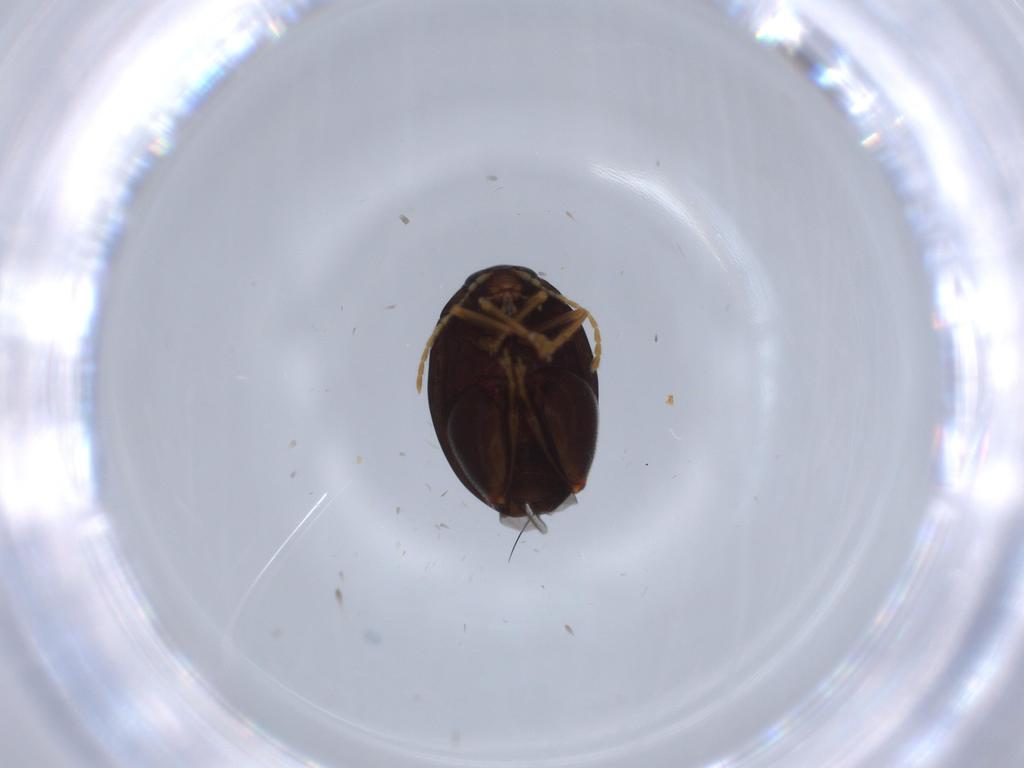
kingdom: Animalia
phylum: Arthropoda
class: Insecta
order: Coleoptera
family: Chrysomelidae
